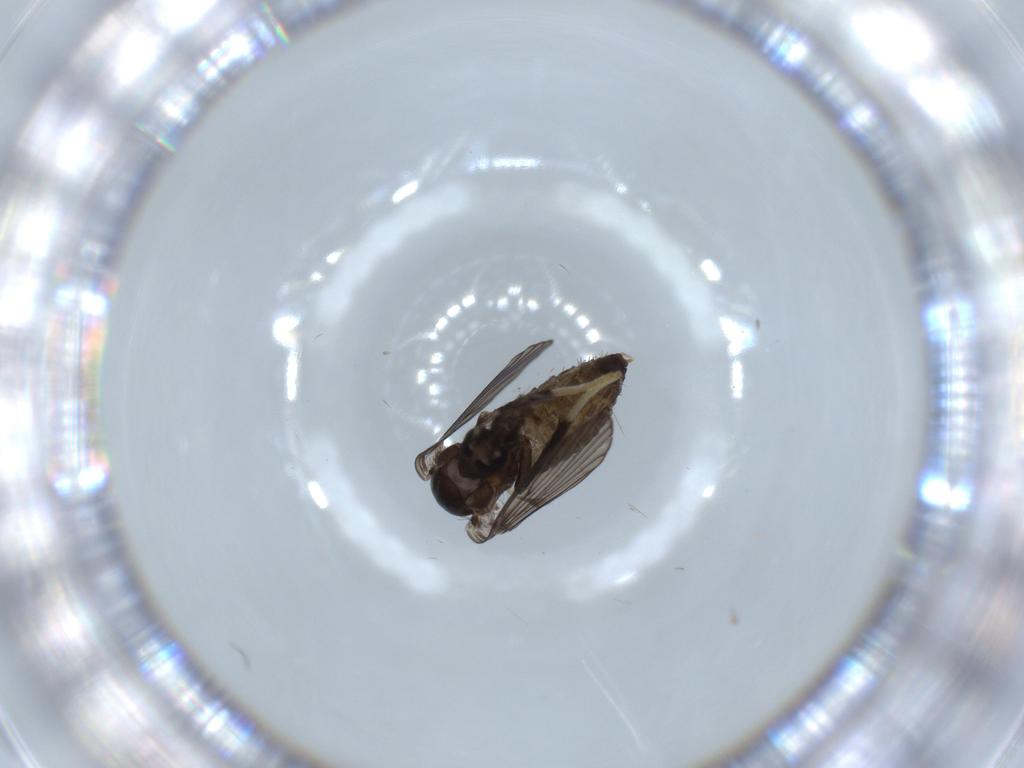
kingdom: Animalia
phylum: Arthropoda
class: Insecta
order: Diptera
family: Psychodidae
